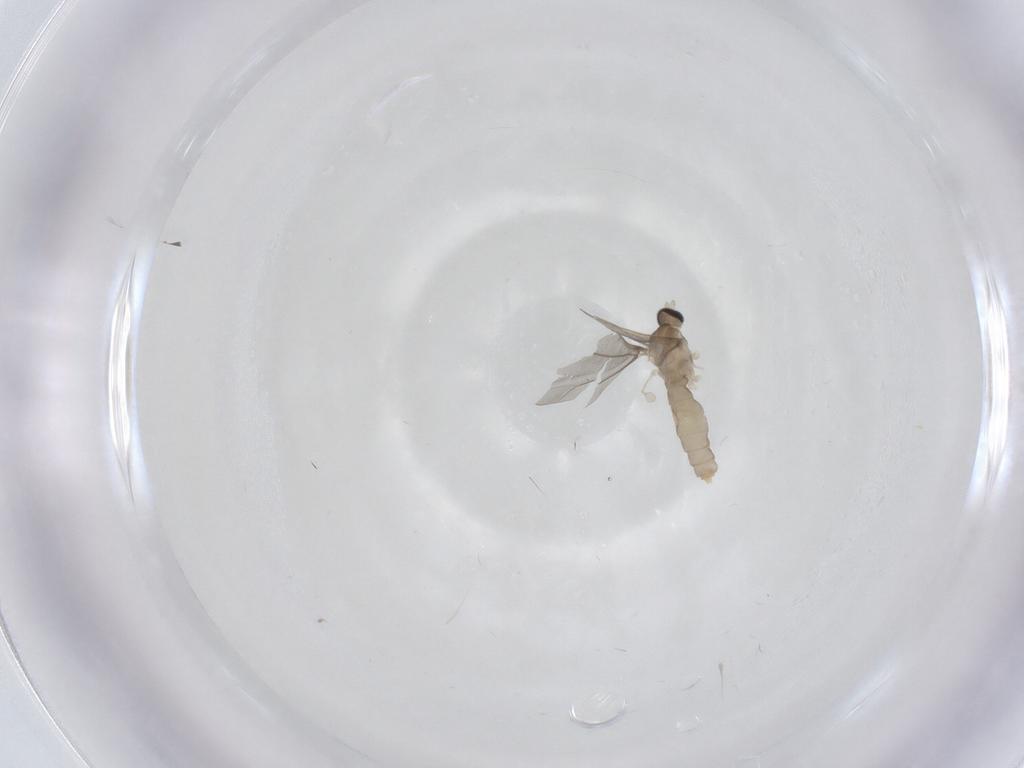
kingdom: Animalia
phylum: Arthropoda
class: Insecta
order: Diptera
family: Cecidomyiidae
